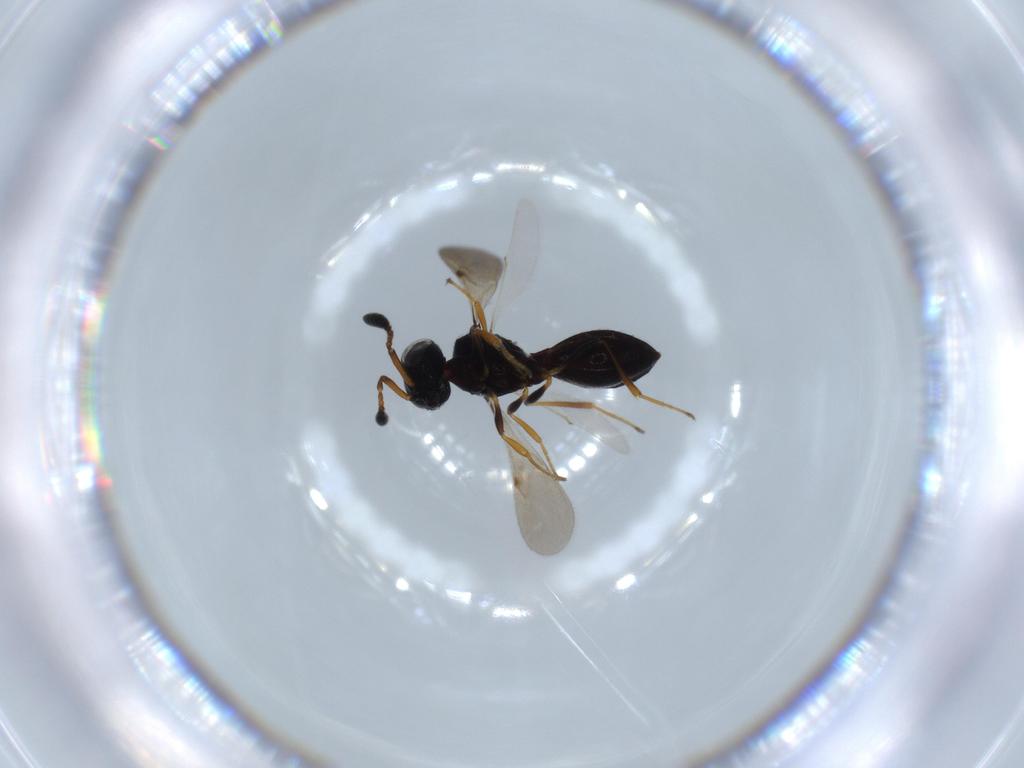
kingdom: Animalia
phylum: Arthropoda
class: Insecta
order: Hymenoptera
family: Scelionidae
